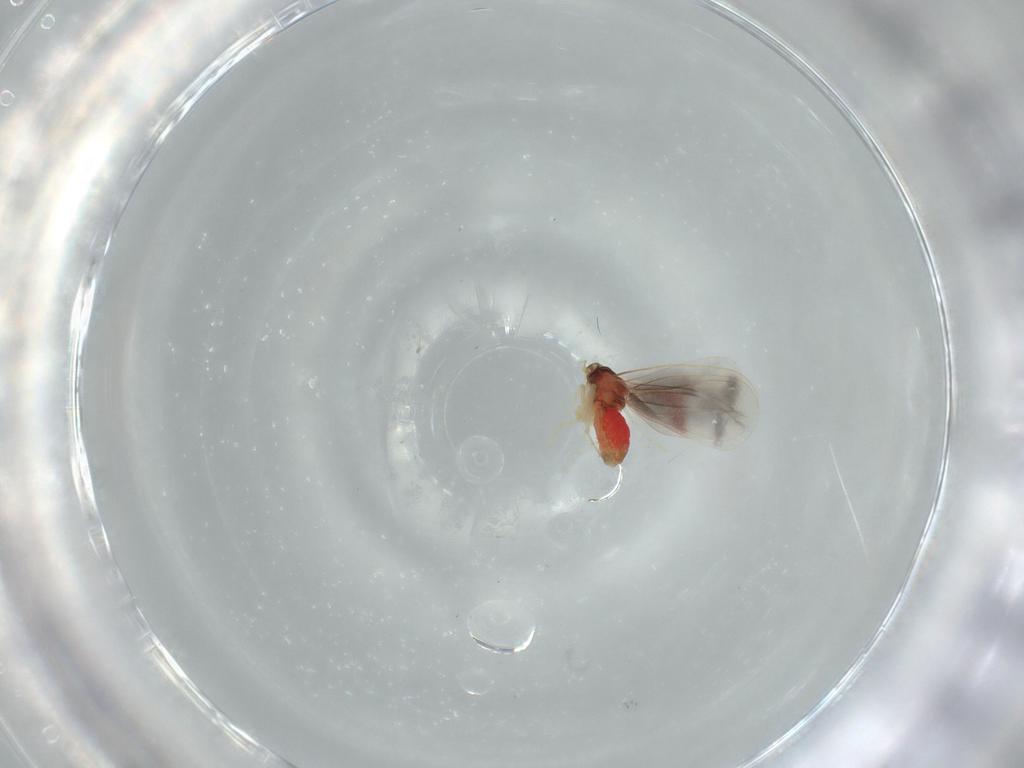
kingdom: Animalia
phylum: Arthropoda
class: Insecta
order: Hemiptera
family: Aleyrodidae
